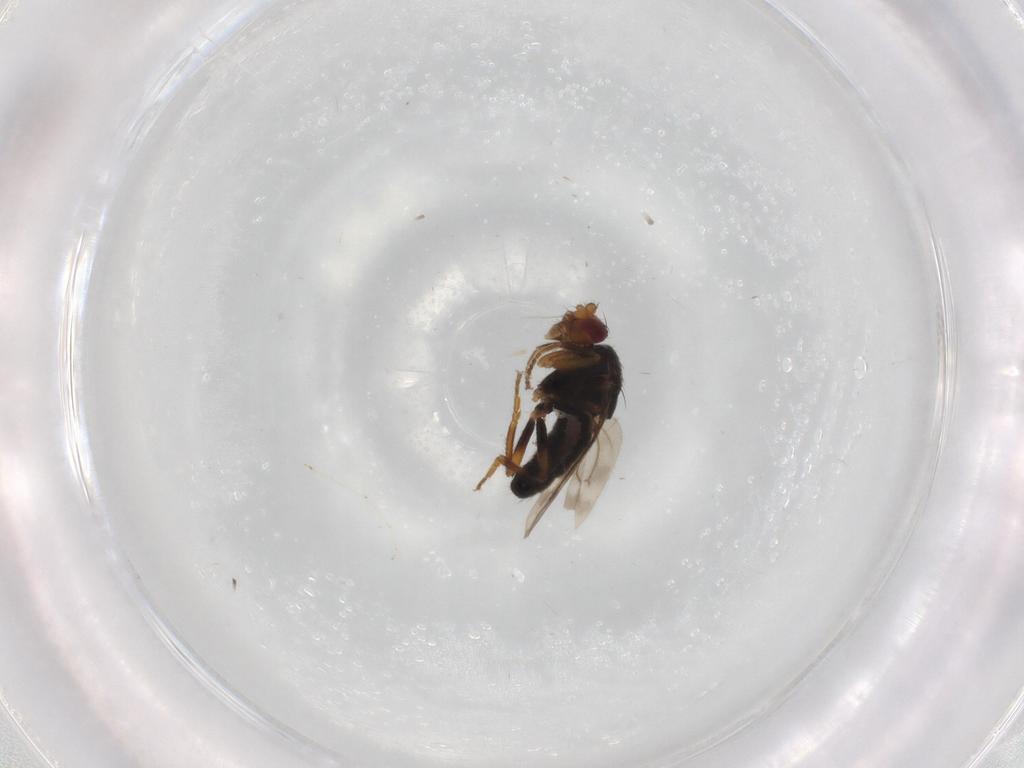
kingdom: Animalia
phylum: Arthropoda
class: Insecta
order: Diptera
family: Sphaeroceridae
